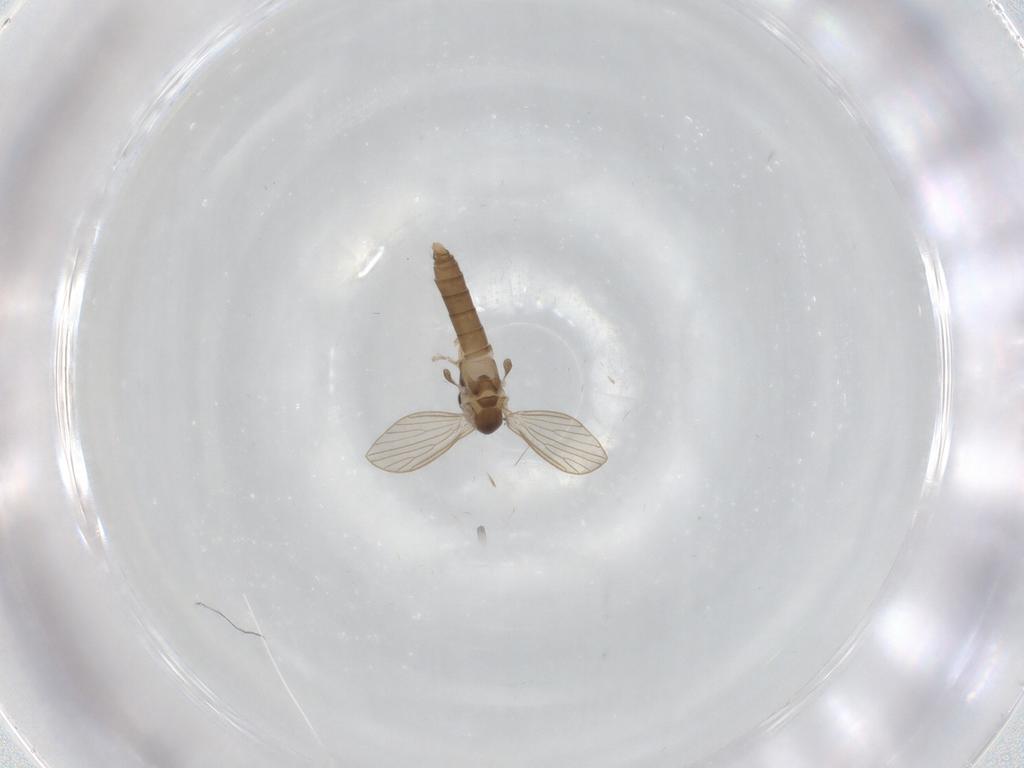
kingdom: Animalia
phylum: Arthropoda
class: Insecta
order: Diptera
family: Psychodidae
